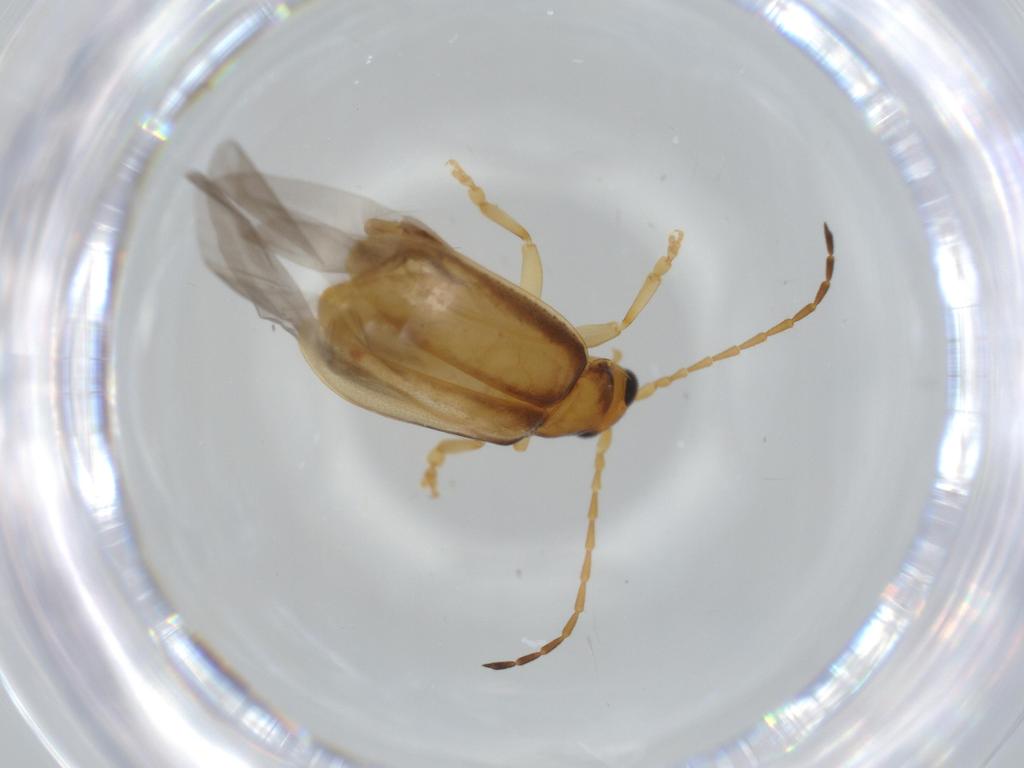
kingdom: Animalia
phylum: Arthropoda
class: Insecta
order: Coleoptera
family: Chrysomelidae
